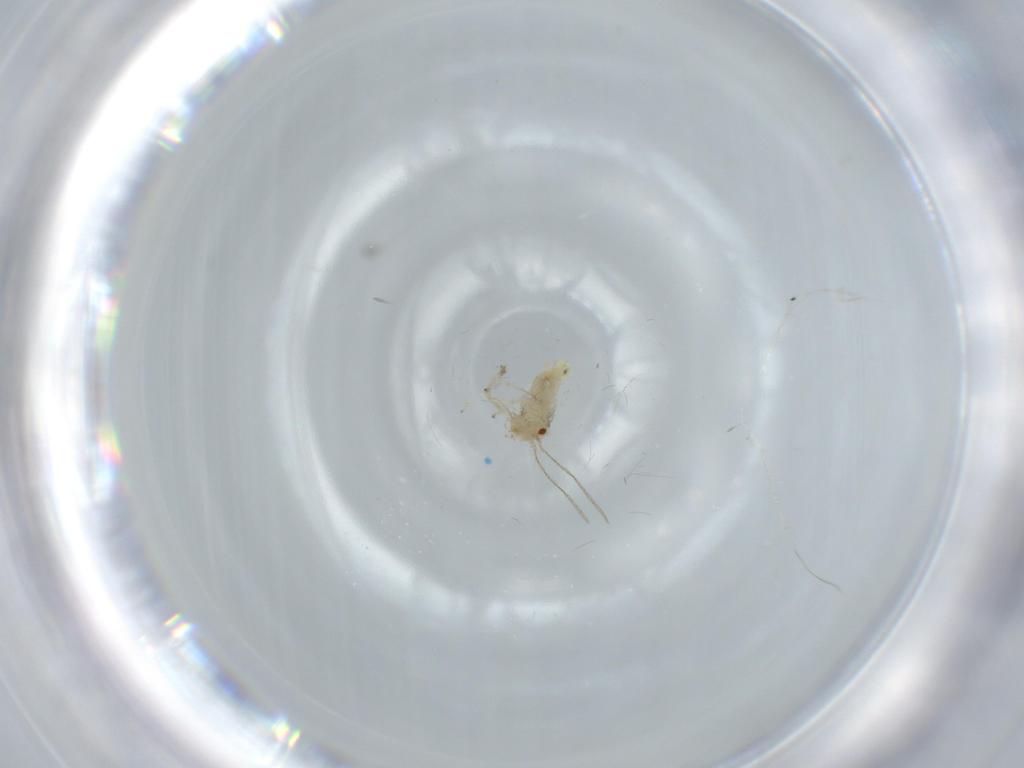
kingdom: Animalia
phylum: Arthropoda
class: Insecta
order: Psocodea
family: Caeciliusidae
